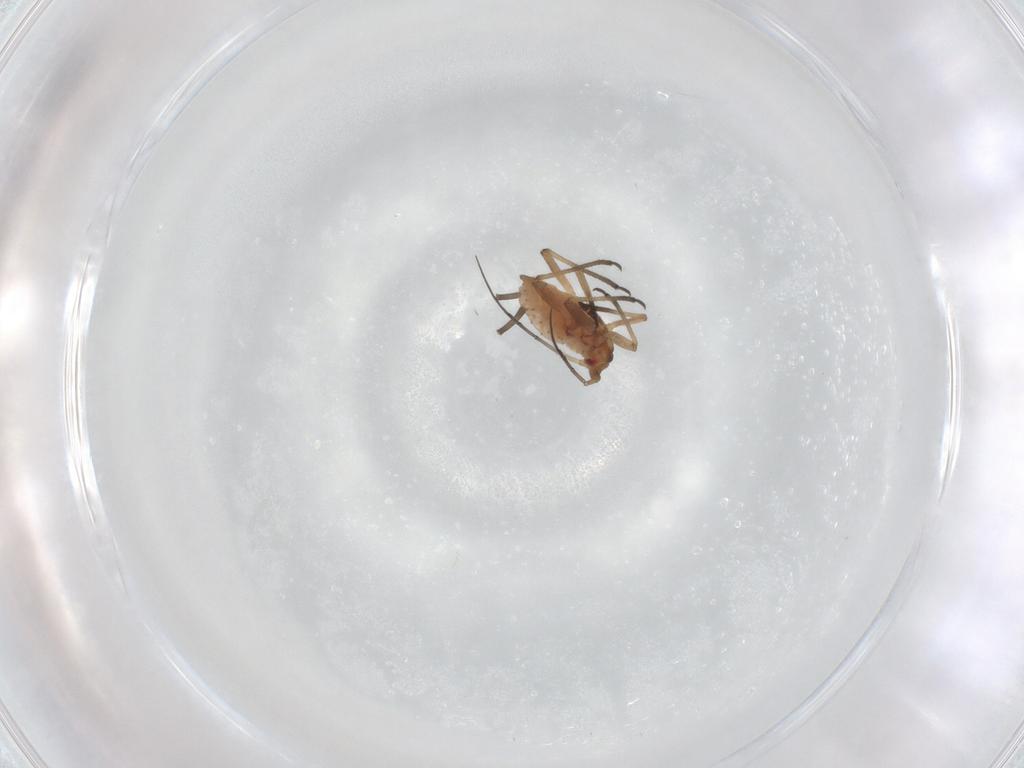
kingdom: Animalia
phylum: Arthropoda
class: Insecta
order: Hemiptera
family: Aphididae
